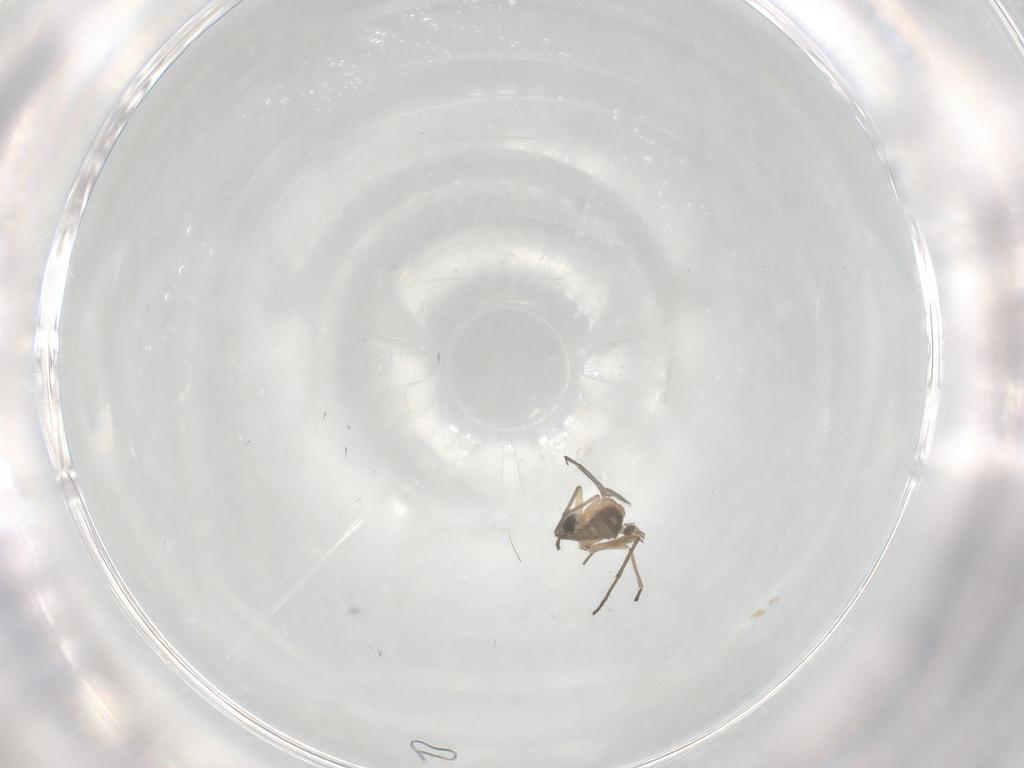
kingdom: Animalia
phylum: Arthropoda
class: Insecta
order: Diptera
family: Sciaridae
